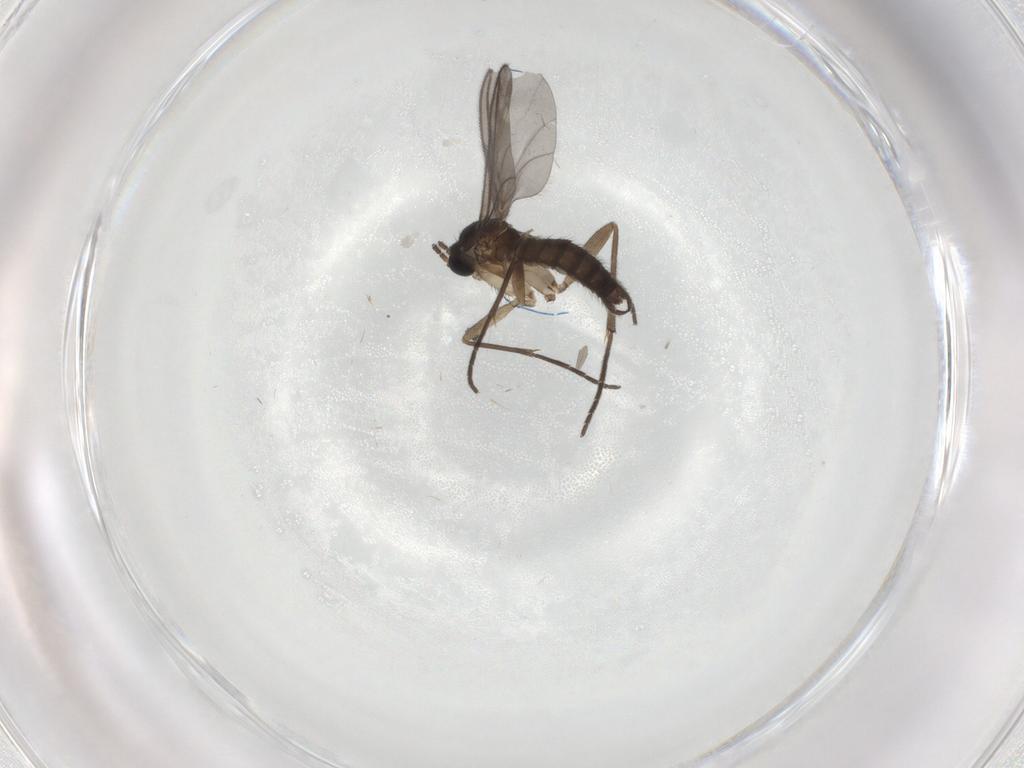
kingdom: Animalia
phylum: Arthropoda
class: Insecta
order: Diptera
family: Sciaridae
